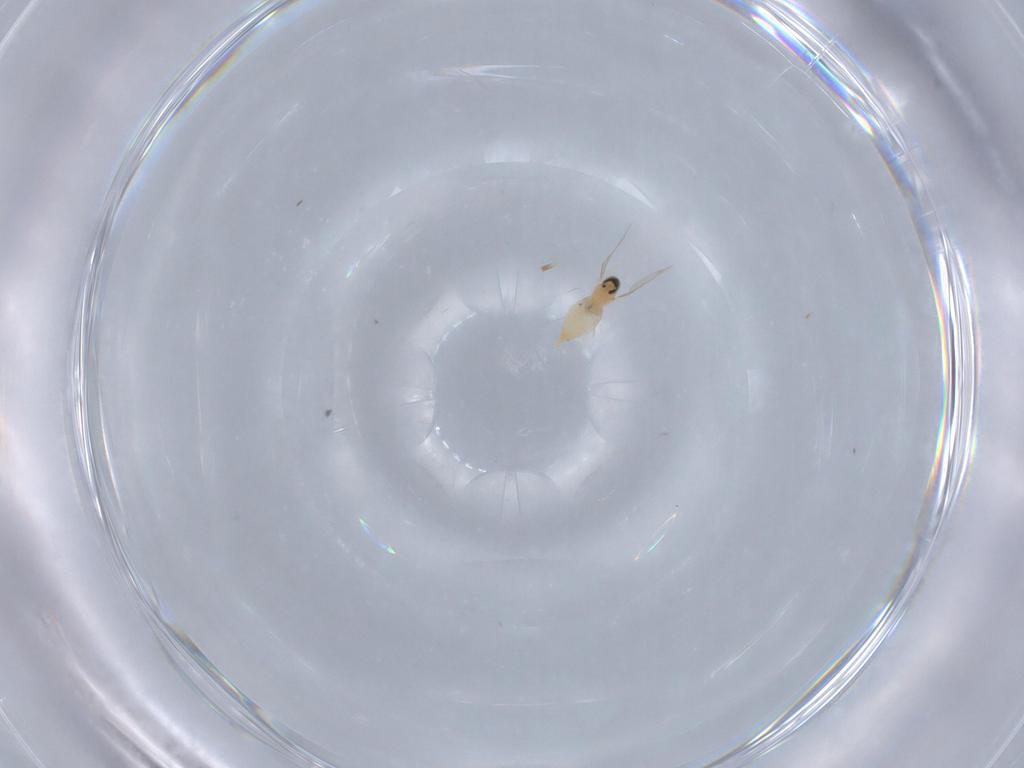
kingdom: Animalia
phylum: Arthropoda
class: Insecta
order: Diptera
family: Cecidomyiidae
